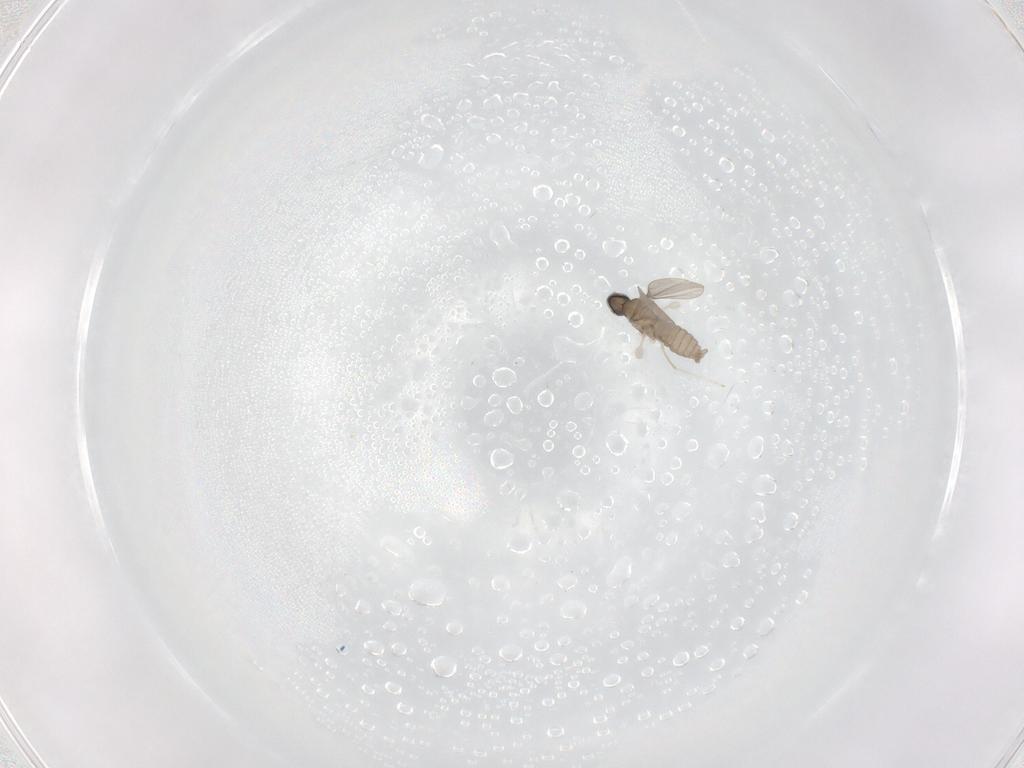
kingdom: Animalia
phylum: Arthropoda
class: Insecta
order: Diptera
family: Cecidomyiidae
